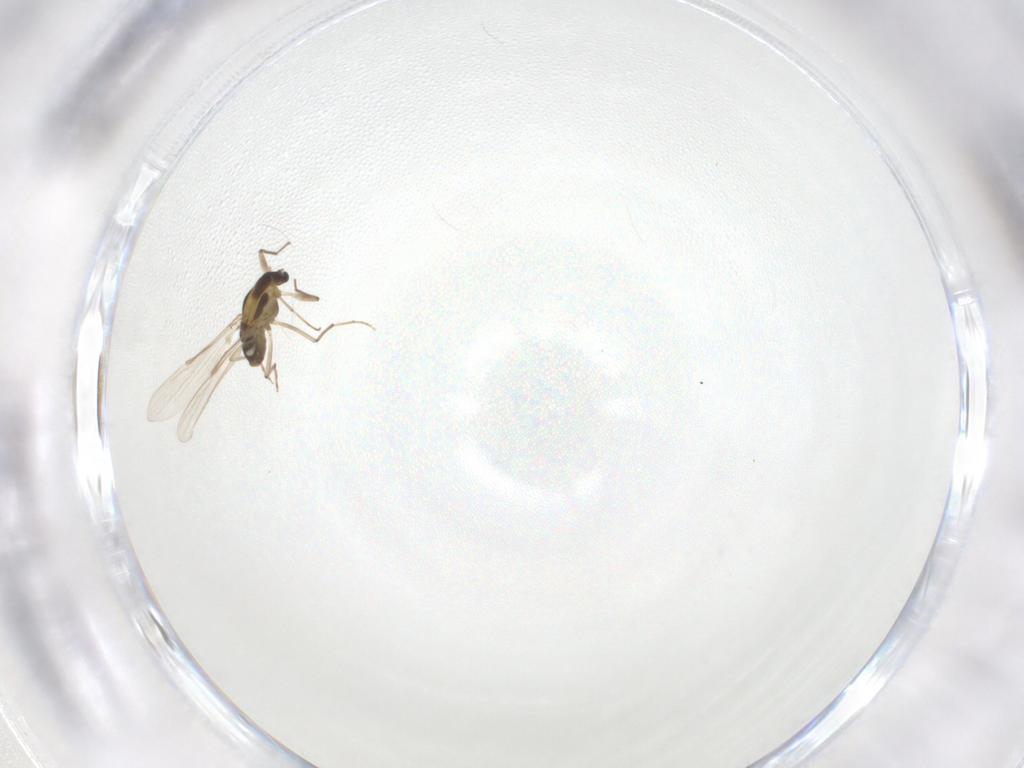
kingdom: Animalia
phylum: Arthropoda
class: Insecta
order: Diptera
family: Chironomidae
